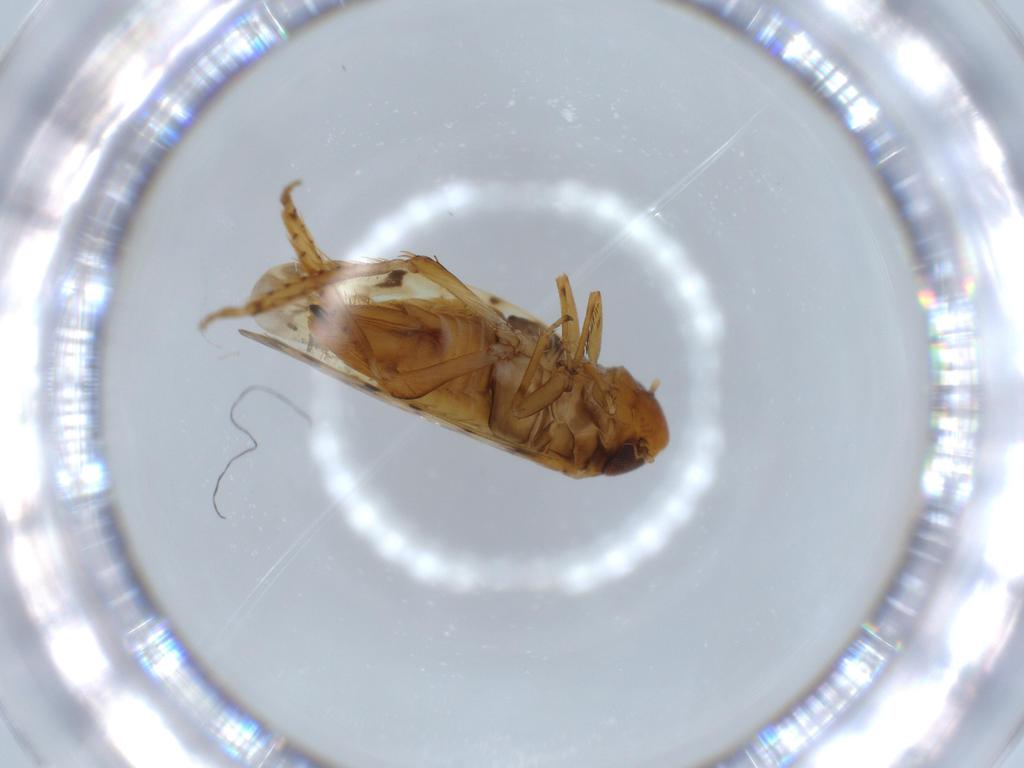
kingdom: Animalia
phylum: Arthropoda
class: Insecta
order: Hemiptera
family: Cicadellidae
